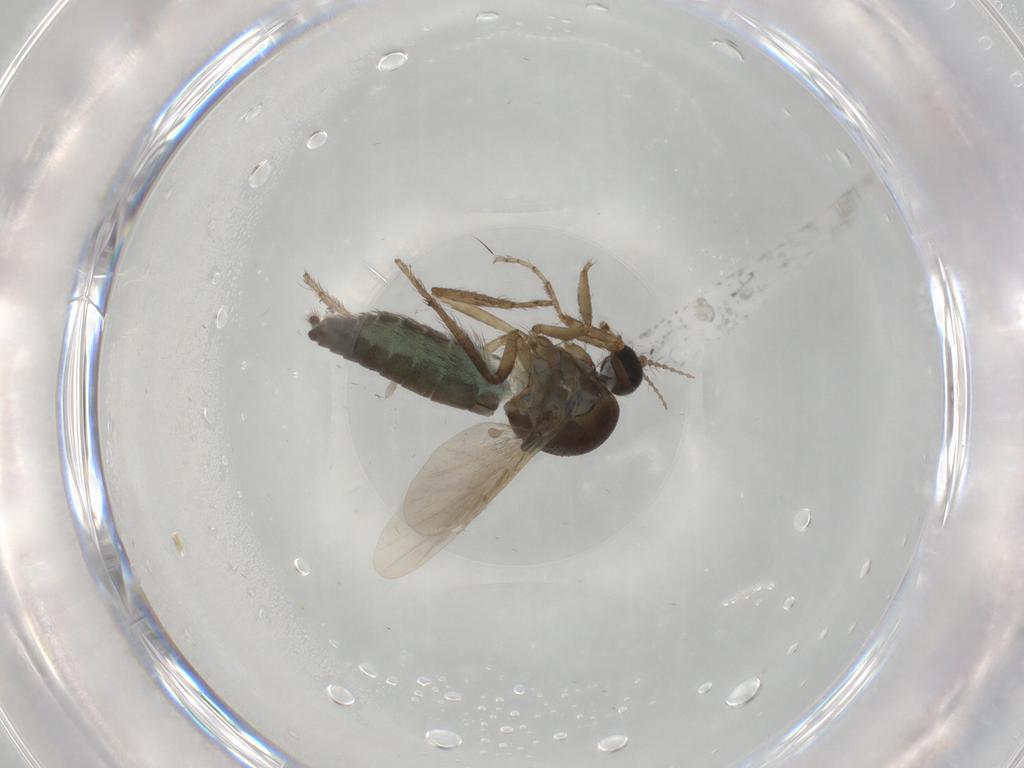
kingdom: Animalia
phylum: Arthropoda
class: Insecta
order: Diptera
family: Ceratopogonidae
